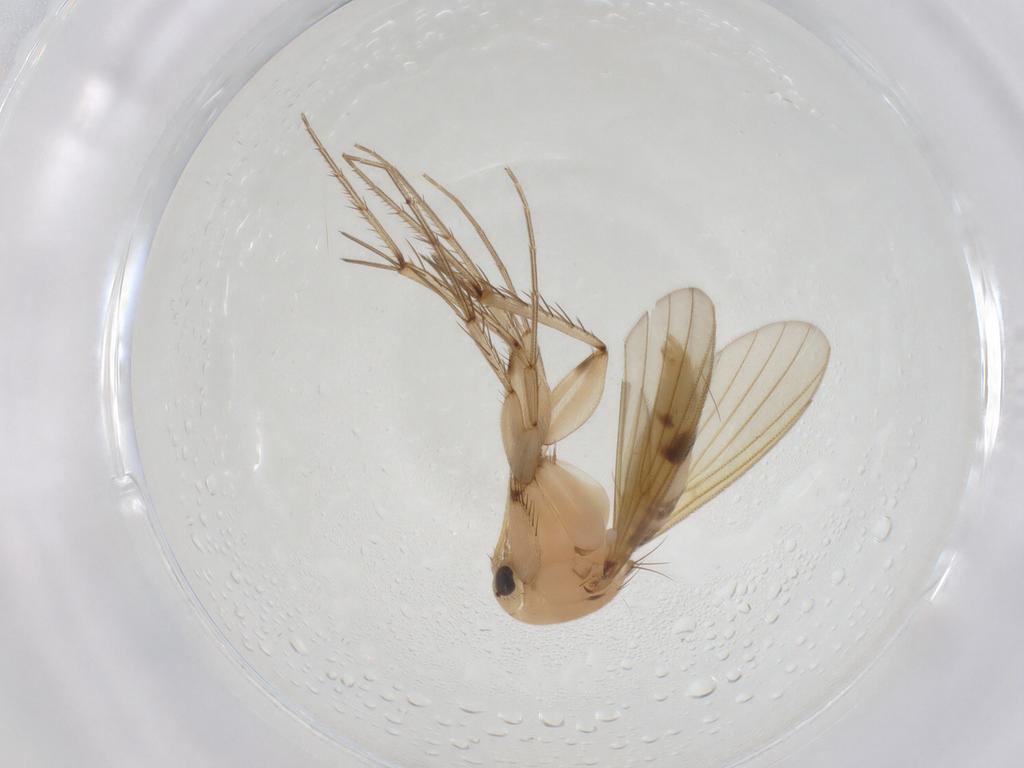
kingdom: Animalia
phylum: Arthropoda
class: Insecta
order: Diptera
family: Mycetophilidae
